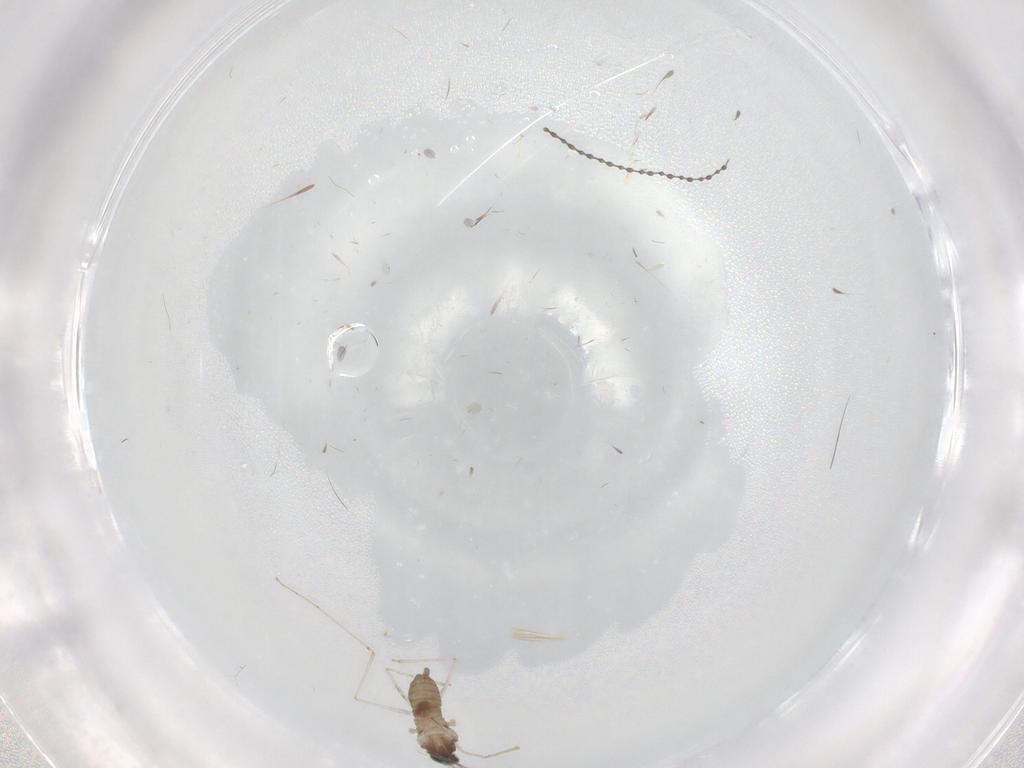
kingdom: Animalia
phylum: Arthropoda
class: Insecta
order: Diptera
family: Cecidomyiidae
